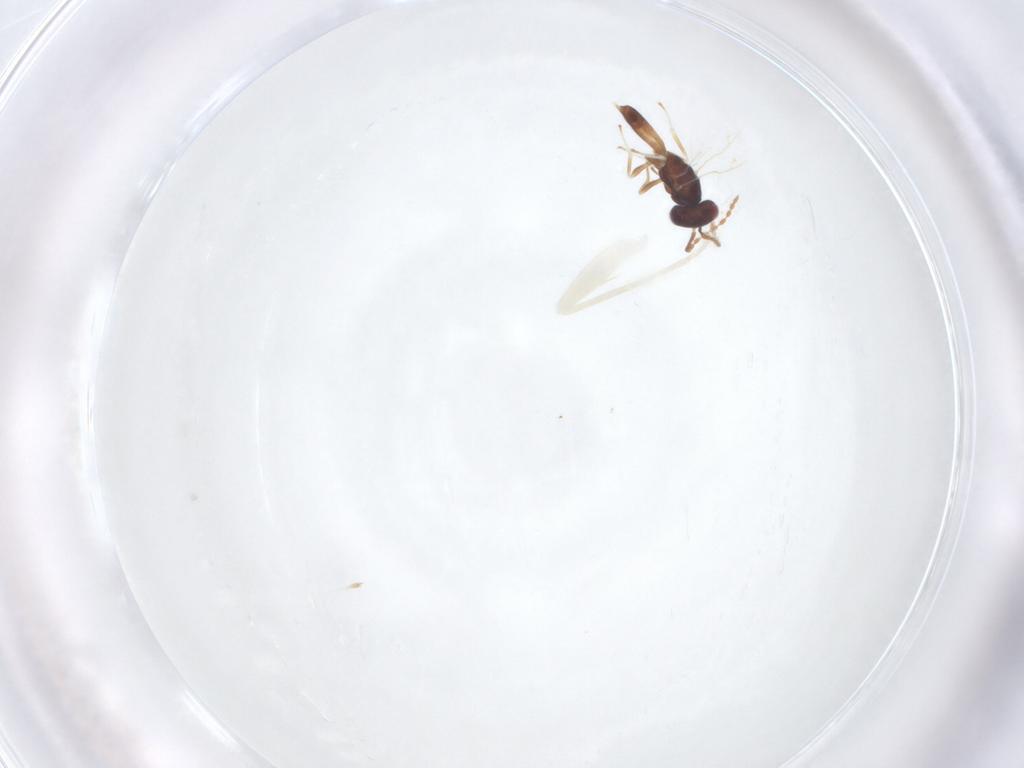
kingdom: Animalia
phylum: Arthropoda
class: Insecta
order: Hymenoptera
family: Pteromalidae
